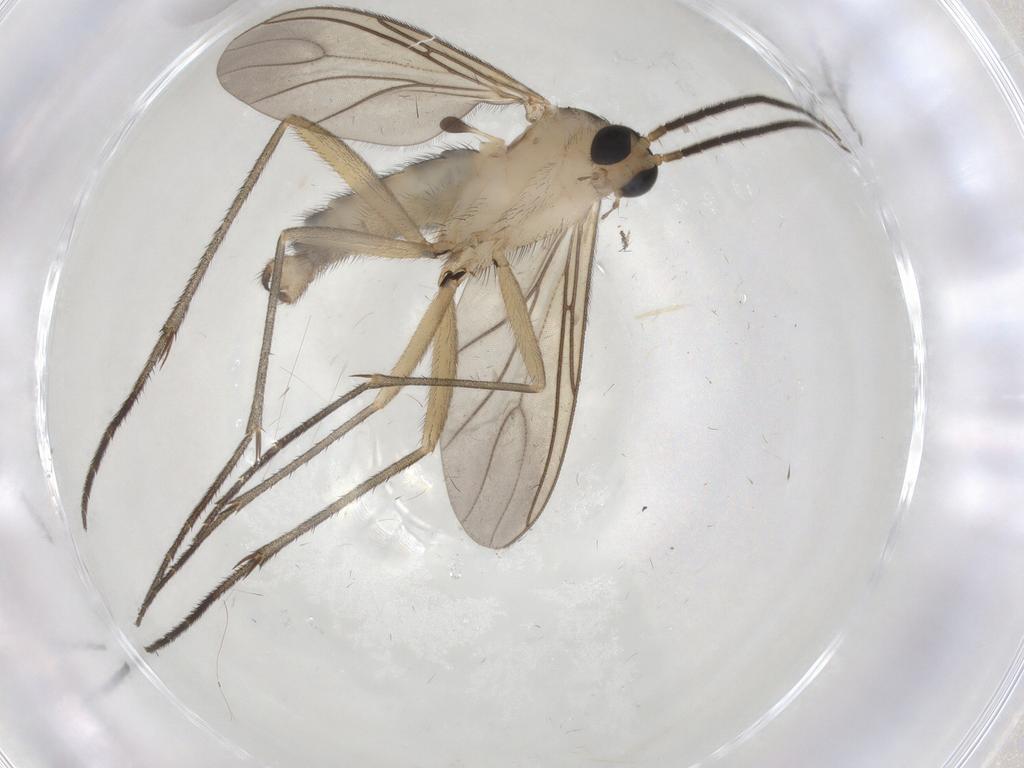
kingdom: Animalia
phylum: Arthropoda
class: Insecta
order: Diptera
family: Sciaridae
